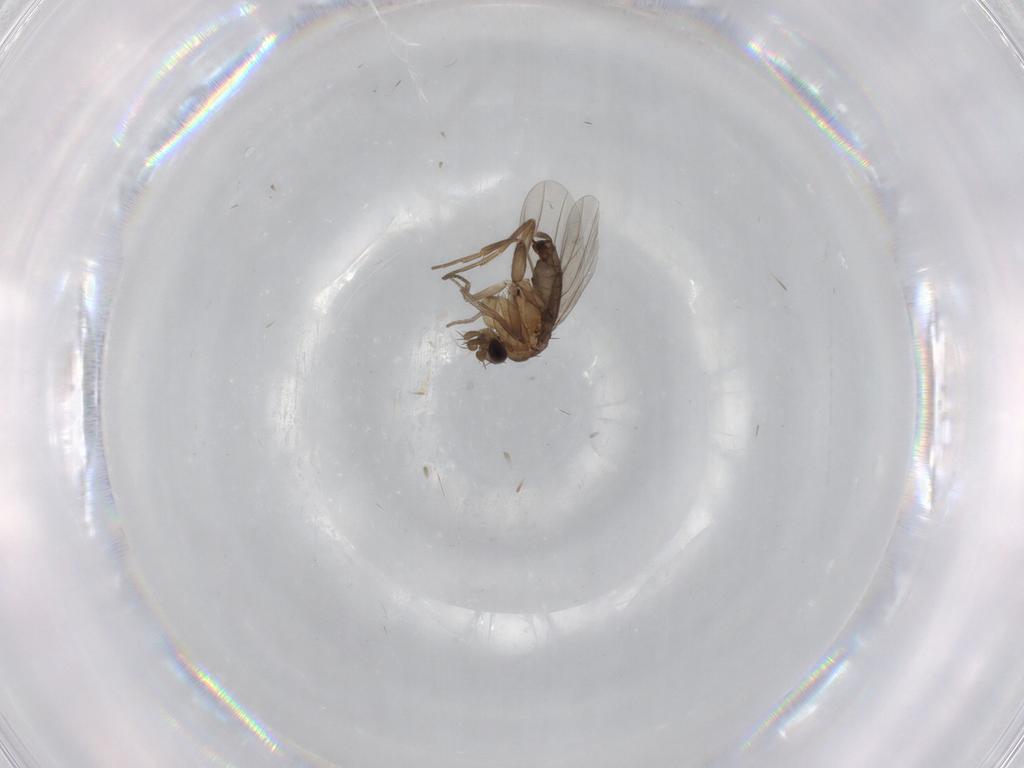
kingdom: Animalia
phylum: Arthropoda
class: Insecta
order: Diptera
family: Phoridae
